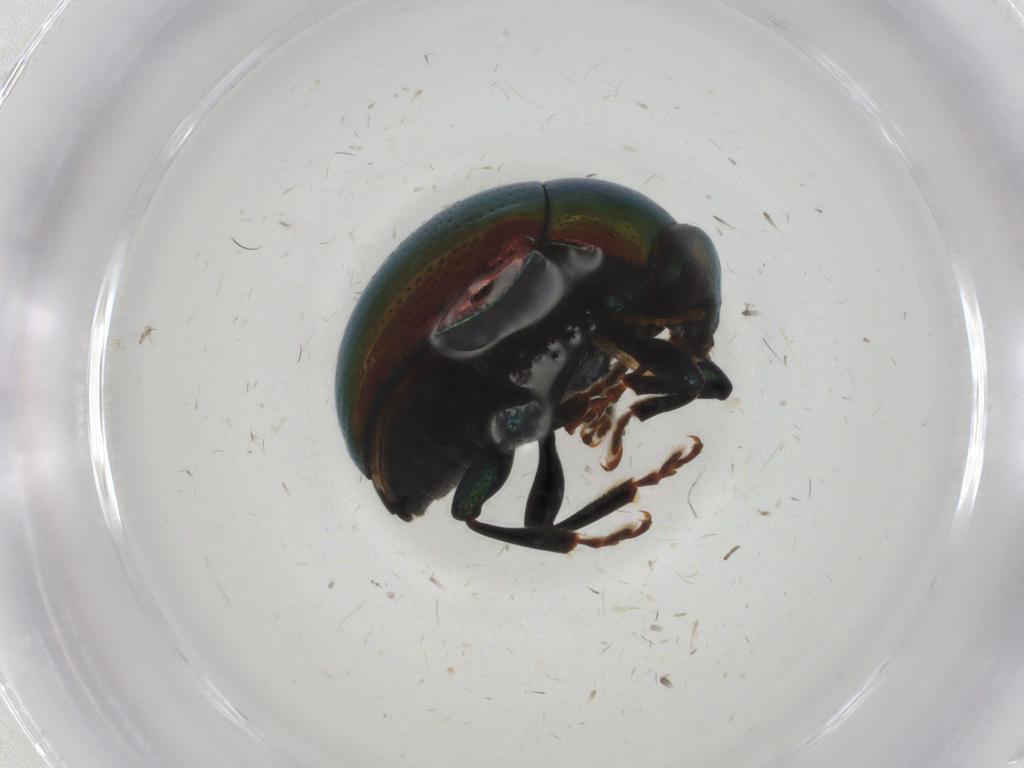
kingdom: Animalia
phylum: Arthropoda
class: Insecta
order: Coleoptera
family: Chrysomelidae
